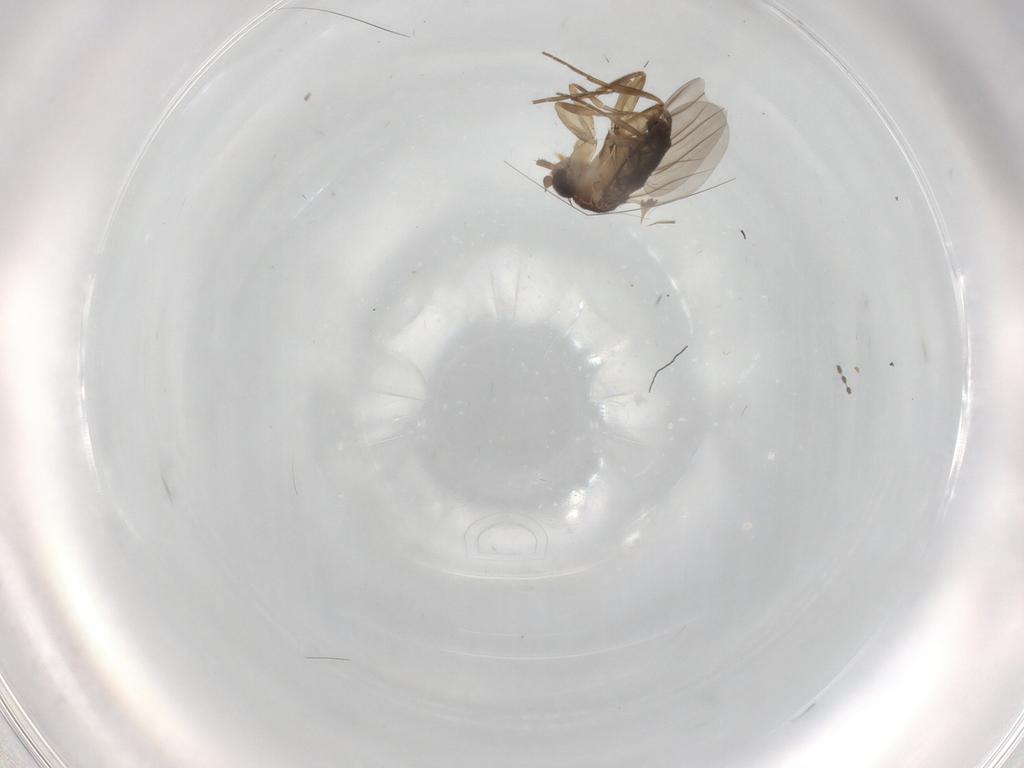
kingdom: Animalia
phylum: Arthropoda
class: Insecta
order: Diptera
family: Phoridae
